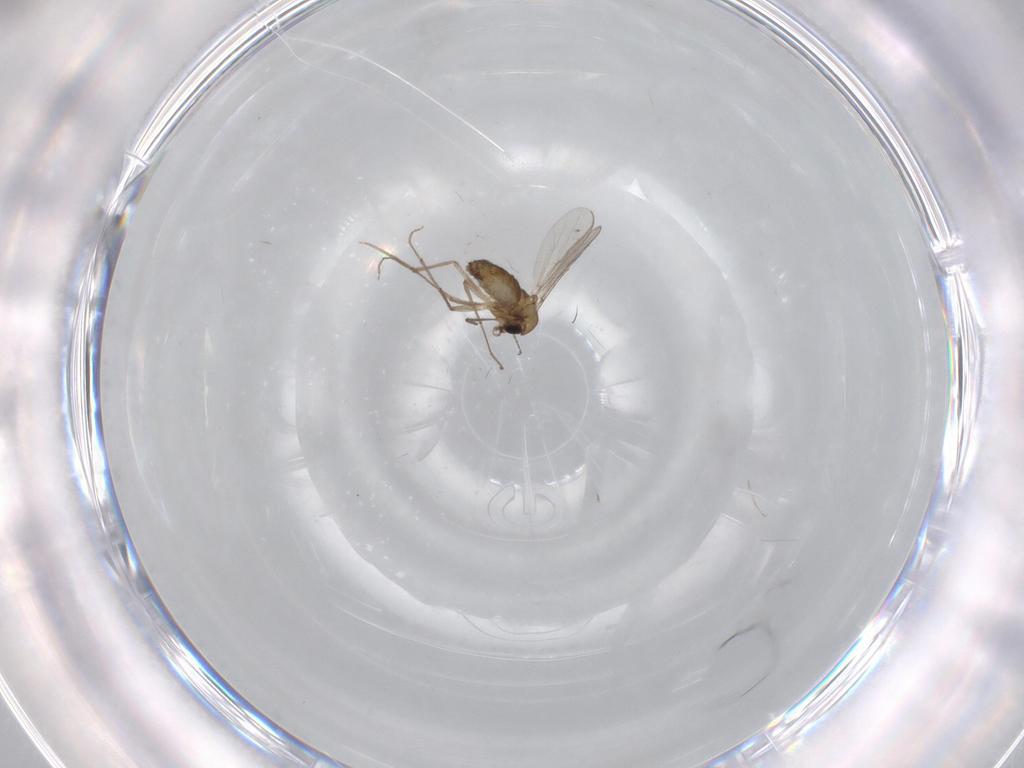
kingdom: Animalia
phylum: Arthropoda
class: Insecta
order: Diptera
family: Chironomidae
